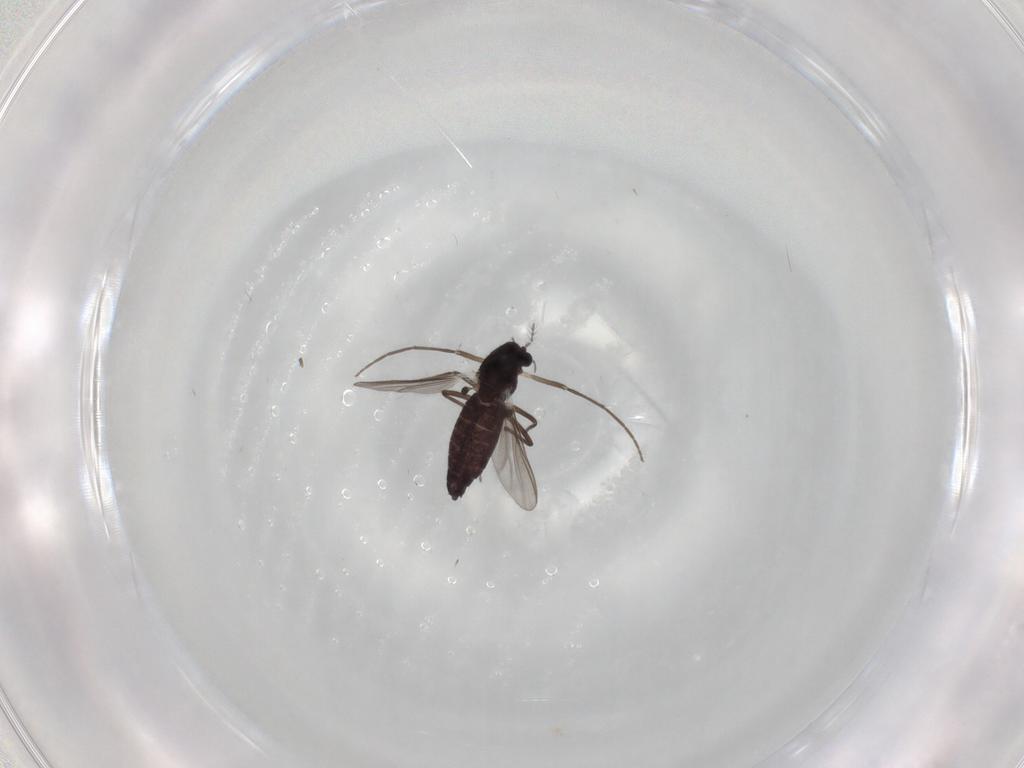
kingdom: Animalia
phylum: Arthropoda
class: Insecta
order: Diptera
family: Chironomidae
